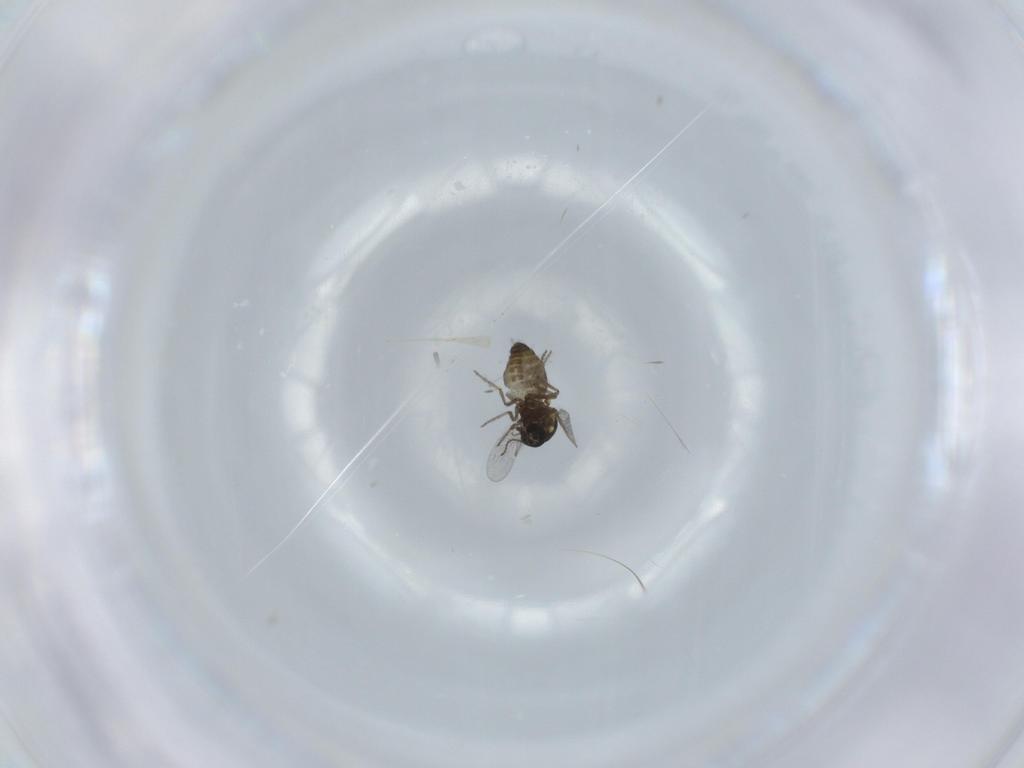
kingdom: Animalia
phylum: Arthropoda
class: Insecta
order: Diptera
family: Ceratopogonidae
